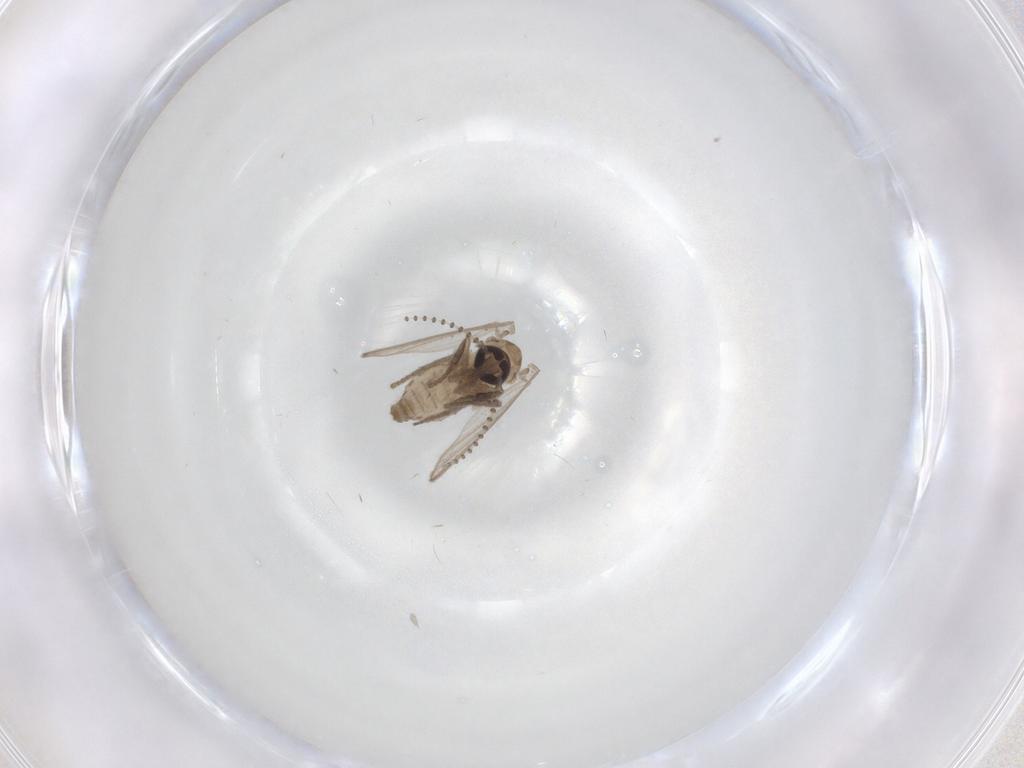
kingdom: Animalia
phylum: Arthropoda
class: Insecta
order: Diptera
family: Psychodidae
